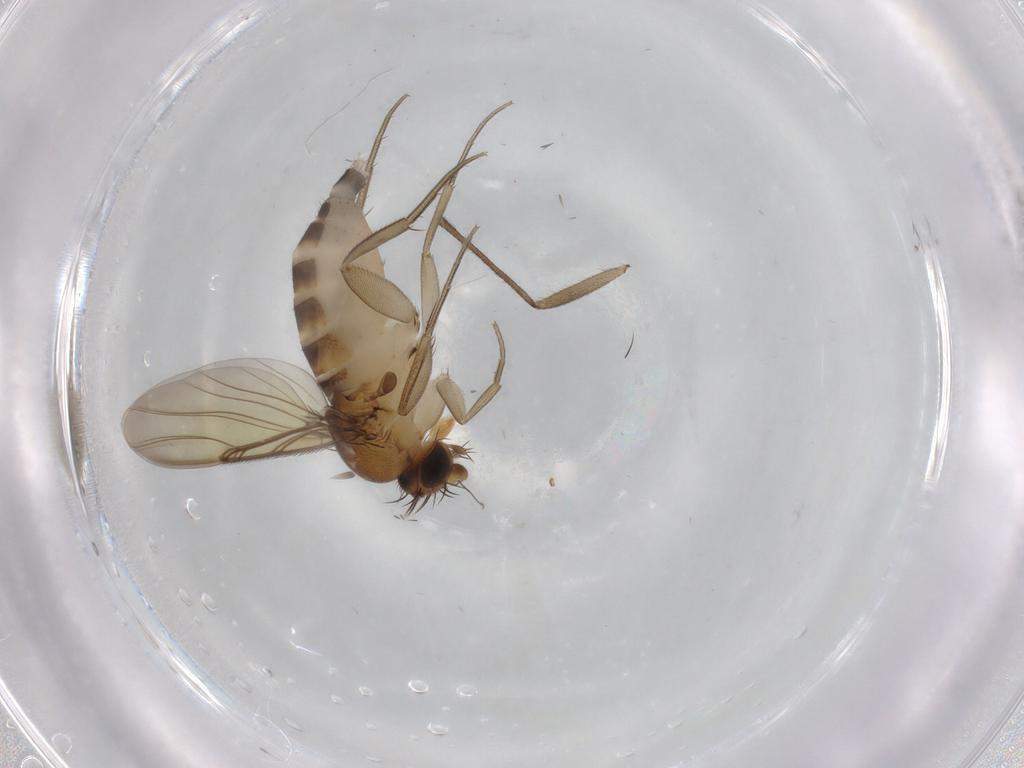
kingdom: Animalia
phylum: Arthropoda
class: Insecta
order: Diptera
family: Sciaridae
